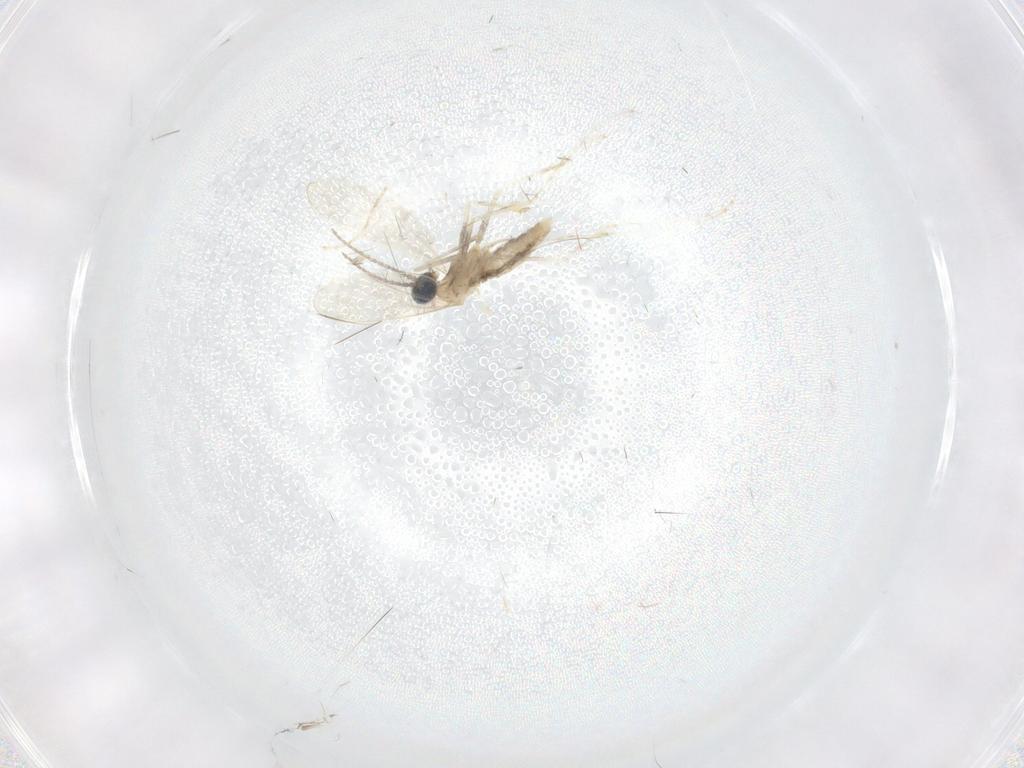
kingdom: Animalia
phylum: Arthropoda
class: Insecta
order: Diptera
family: Cecidomyiidae
